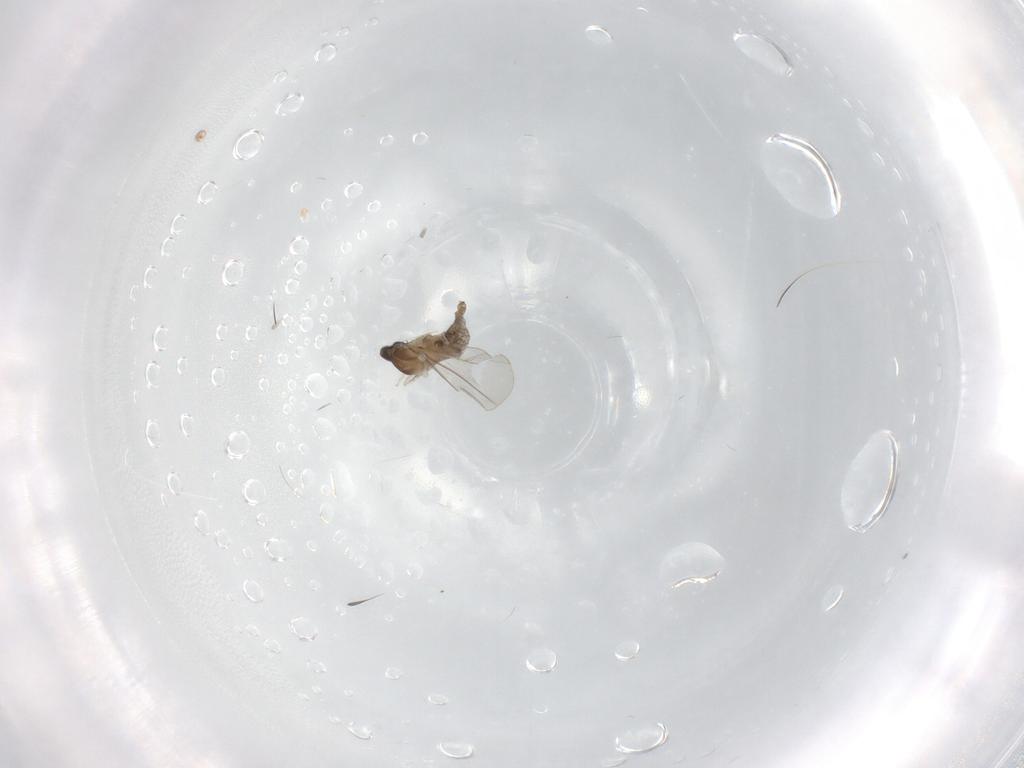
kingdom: Animalia
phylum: Arthropoda
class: Insecta
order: Diptera
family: Cecidomyiidae
